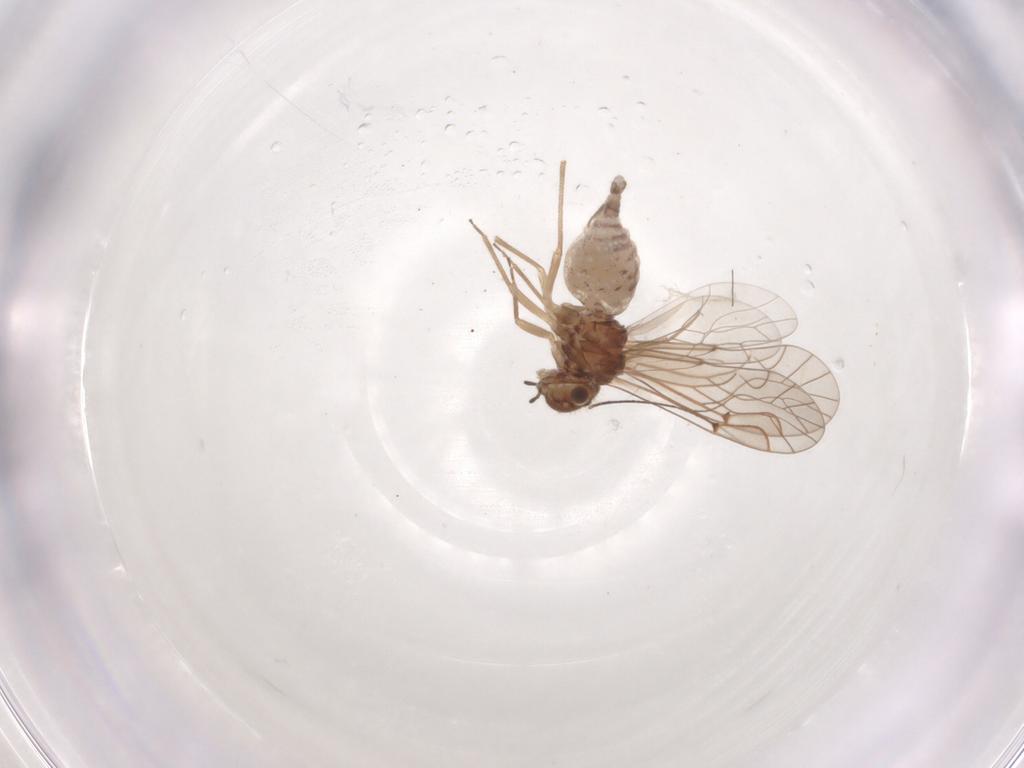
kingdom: Animalia
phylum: Arthropoda
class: Insecta
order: Psocodea
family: Lachesillidae
